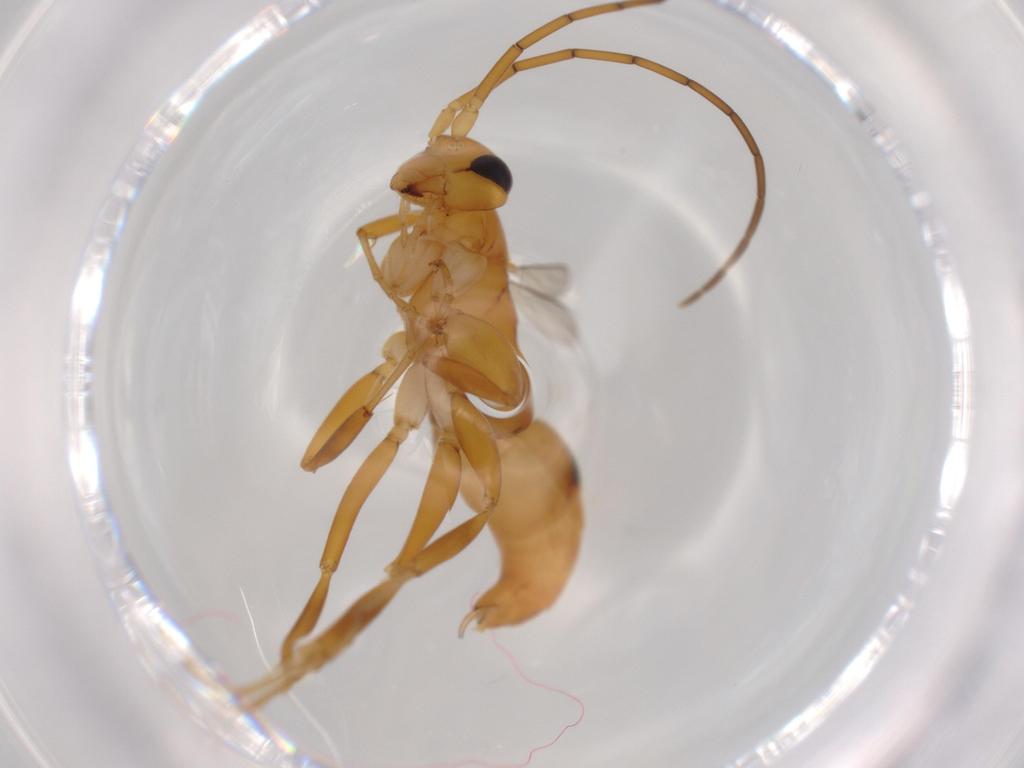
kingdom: Animalia
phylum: Arthropoda
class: Insecta
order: Hymenoptera
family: Rhopalosomatidae
